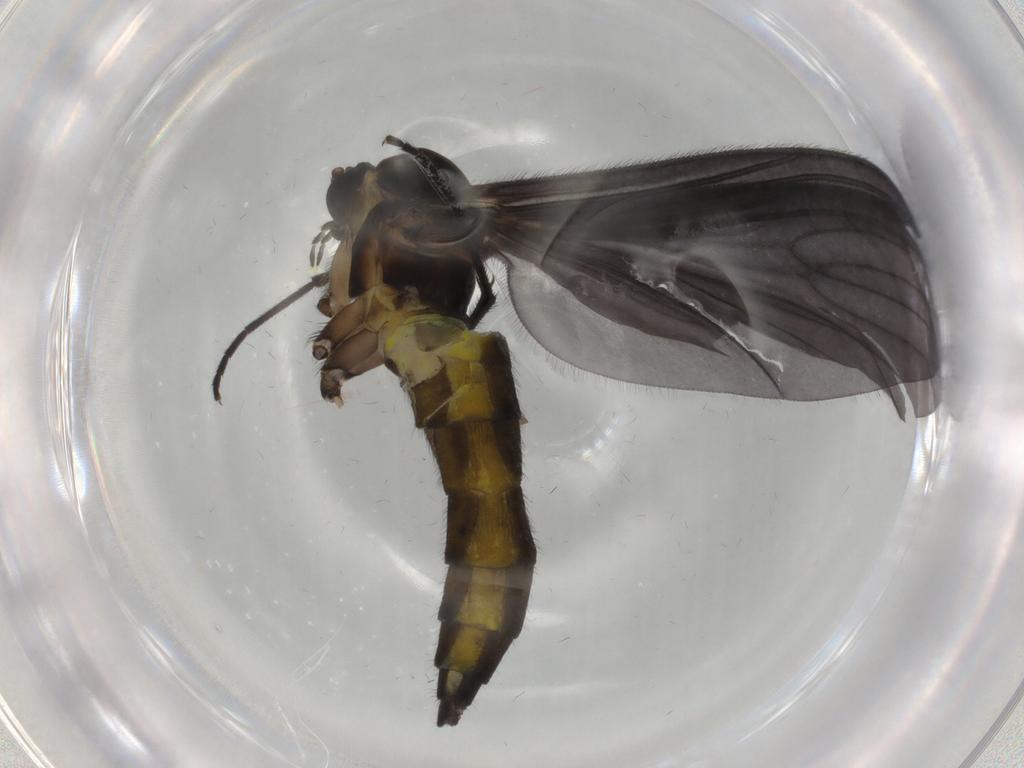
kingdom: Animalia
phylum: Arthropoda
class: Insecta
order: Diptera
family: Sciaridae
